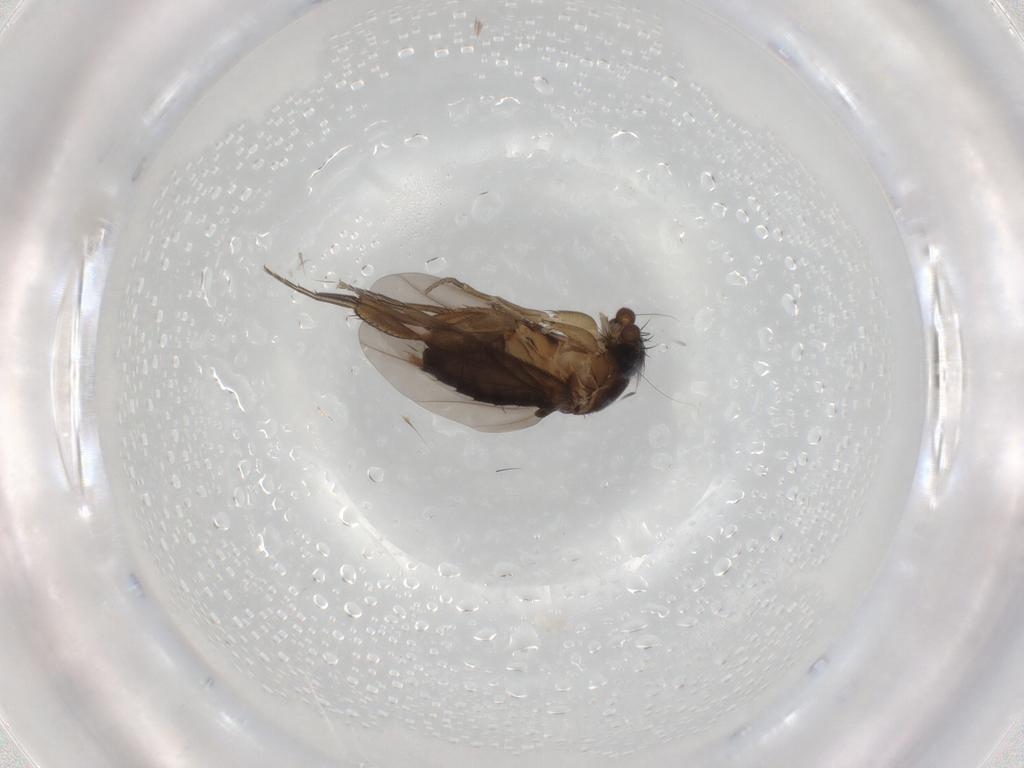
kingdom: Animalia
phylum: Arthropoda
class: Insecta
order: Diptera
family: Phoridae
